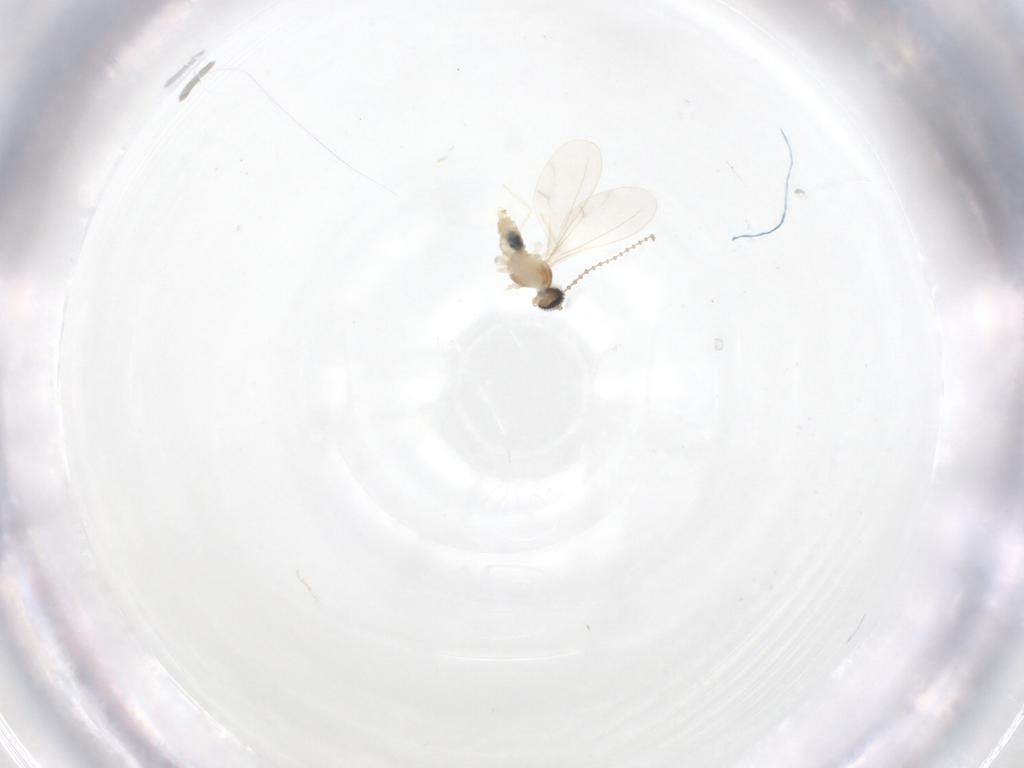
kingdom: Animalia
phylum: Arthropoda
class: Insecta
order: Diptera
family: Cecidomyiidae
